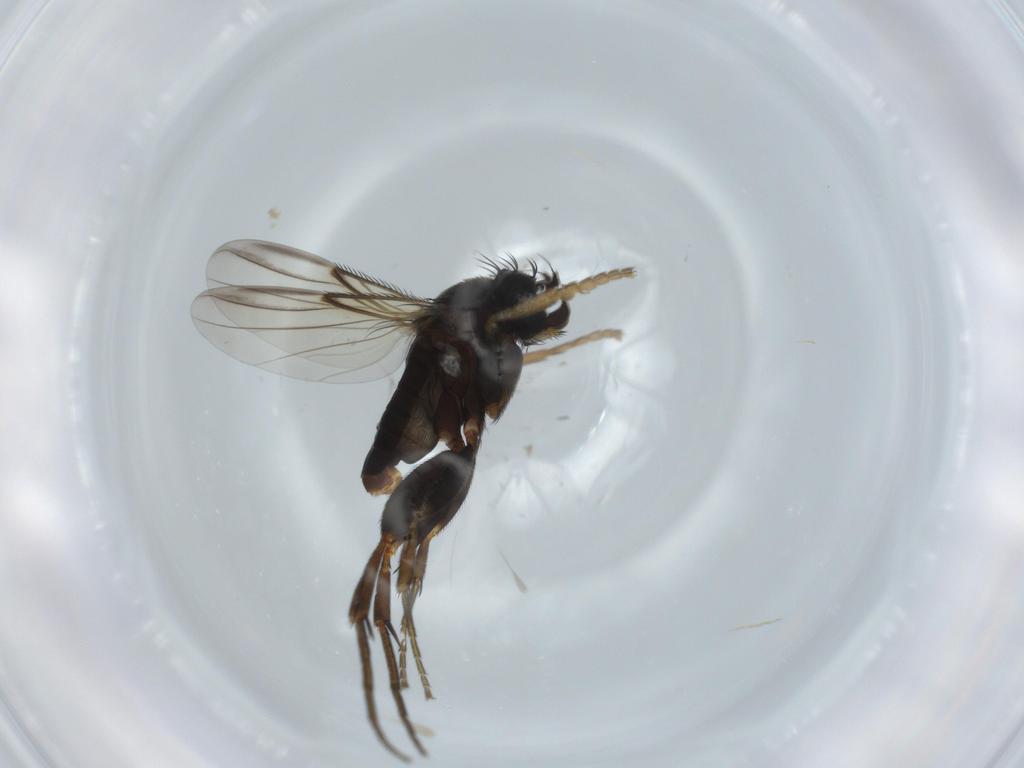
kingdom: Animalia
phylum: Arthropoda
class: Insecta
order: Diptera
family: Phoridae
